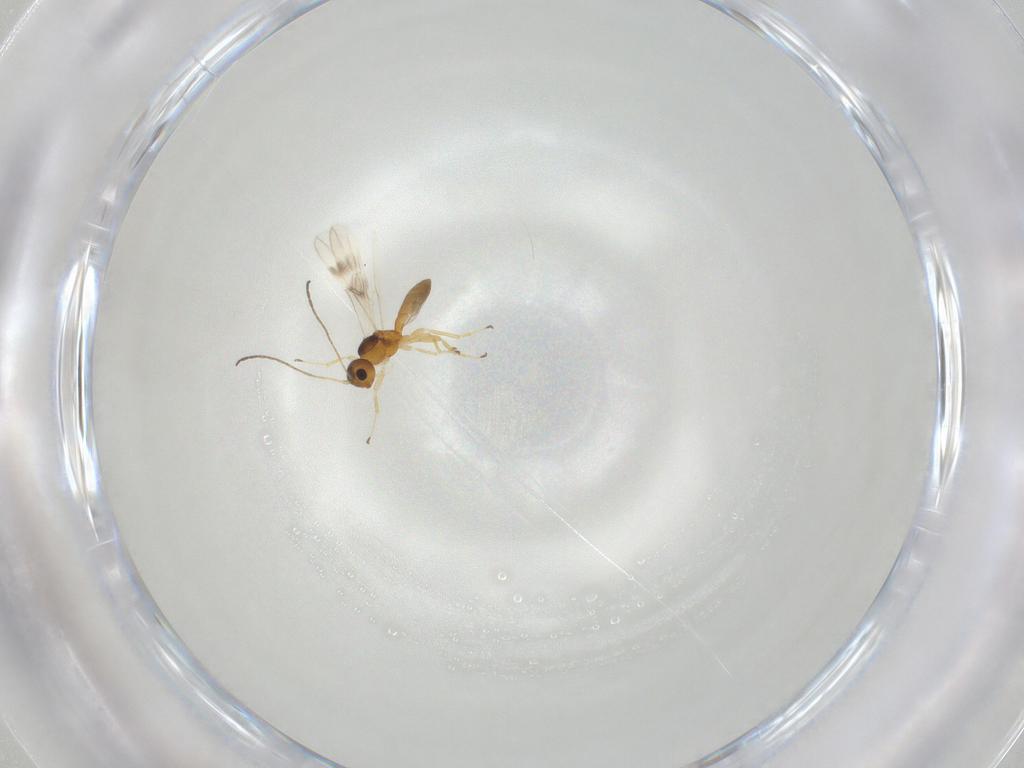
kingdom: Animalia
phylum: Arthropoda
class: Insecta
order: Hymenoptera
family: Braconidae
